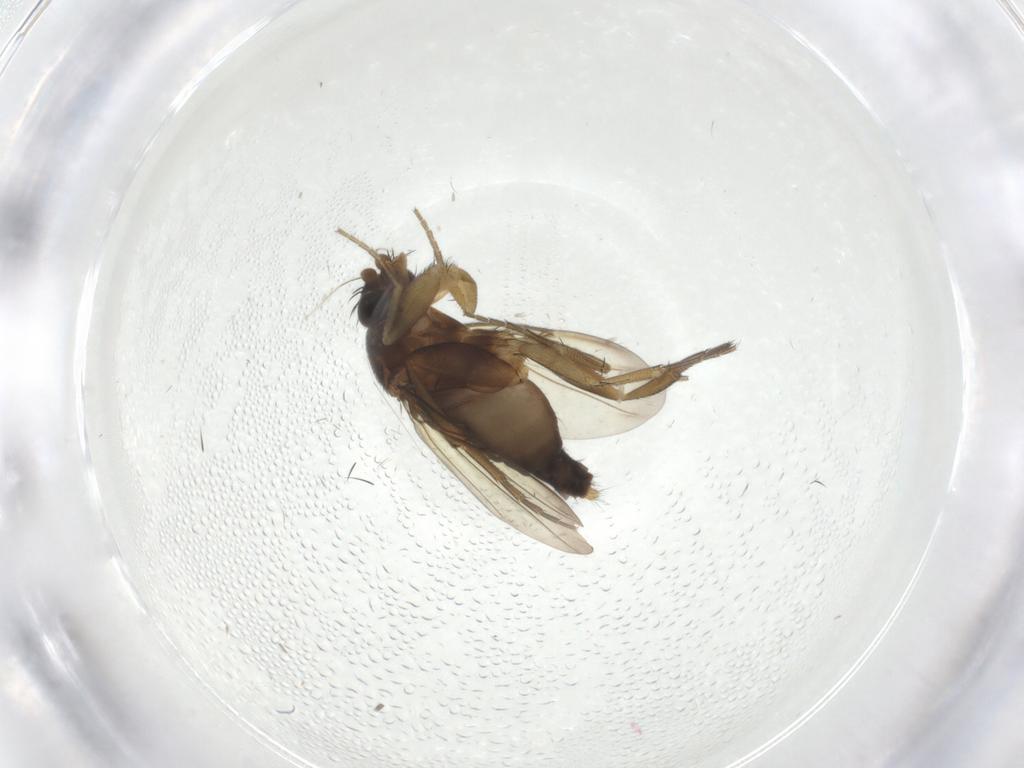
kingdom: Animalia
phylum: Arthropoda
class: Insecta
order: Diptera
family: Phoridae
